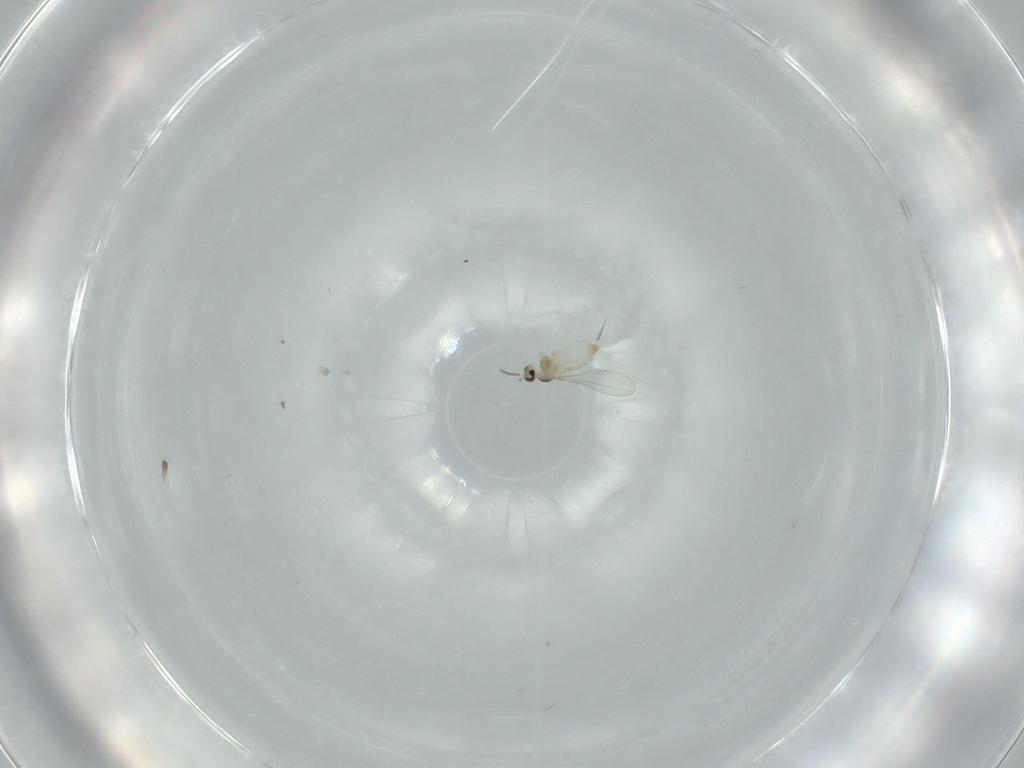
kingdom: Animalia
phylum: Arthropoda
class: Insecta
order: Diptera
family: Cecidomyiidae
